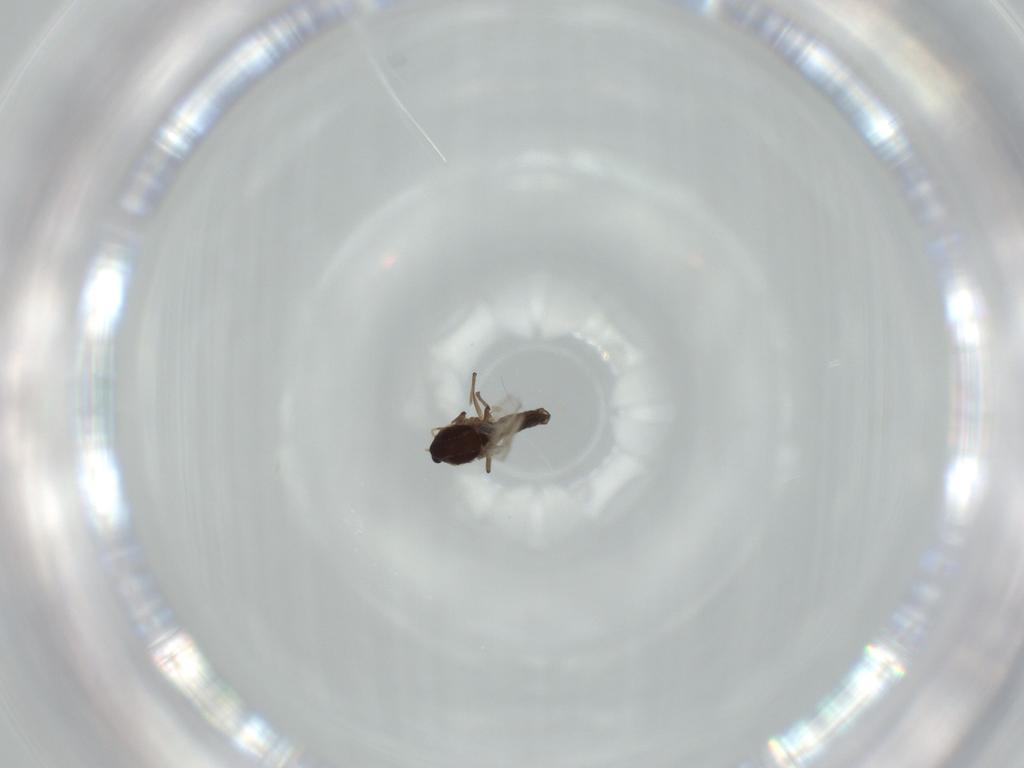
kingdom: Animalia
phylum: Arthropoda
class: Insecta
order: Diptera
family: Chironomidae
